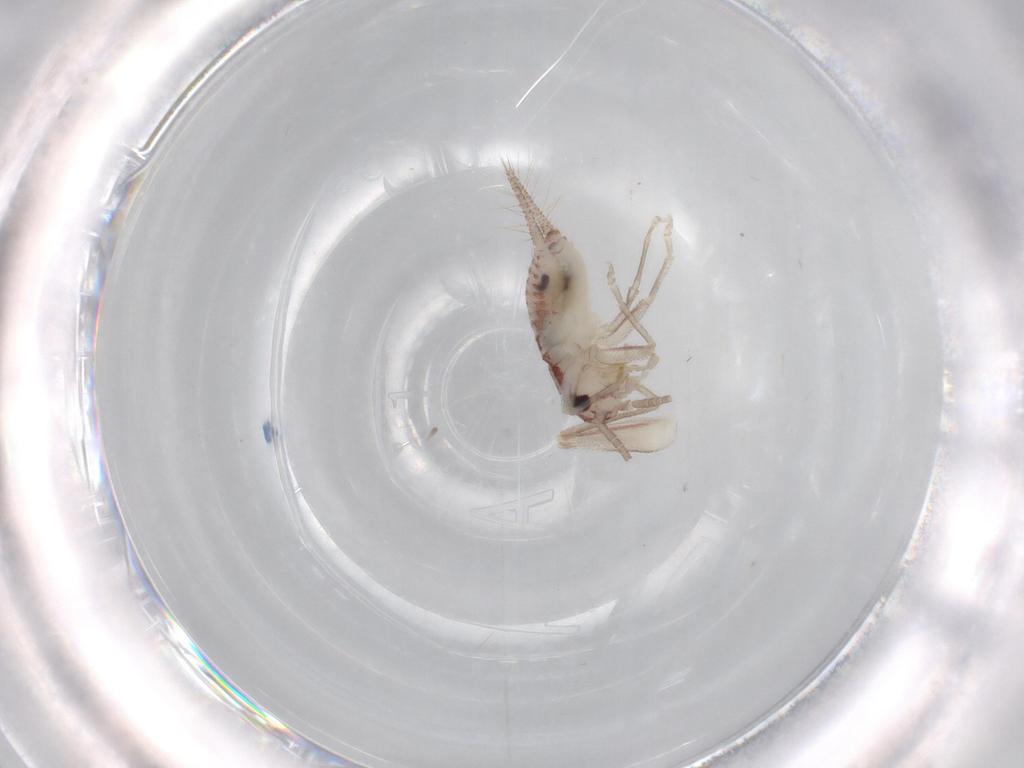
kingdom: Animalia
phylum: Arthropoda
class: Insecta
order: Orthoptera
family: Trigonidiidae
